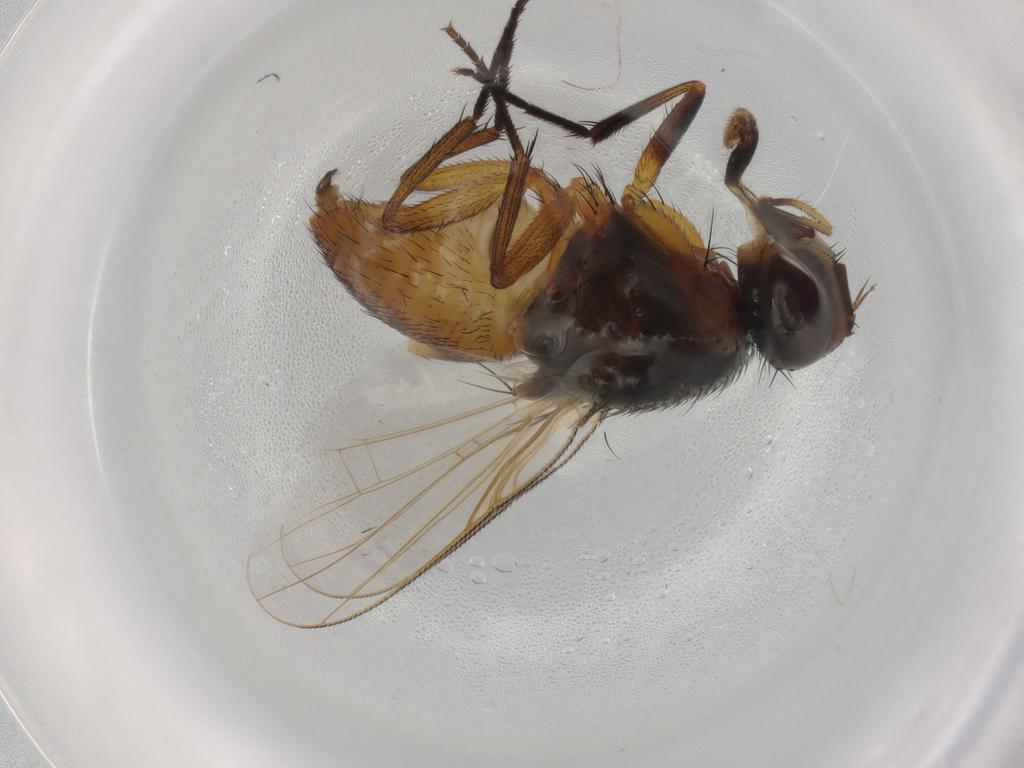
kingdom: Animalia
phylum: Arthropoda
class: Insecta
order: Diptera
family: Muscidae
